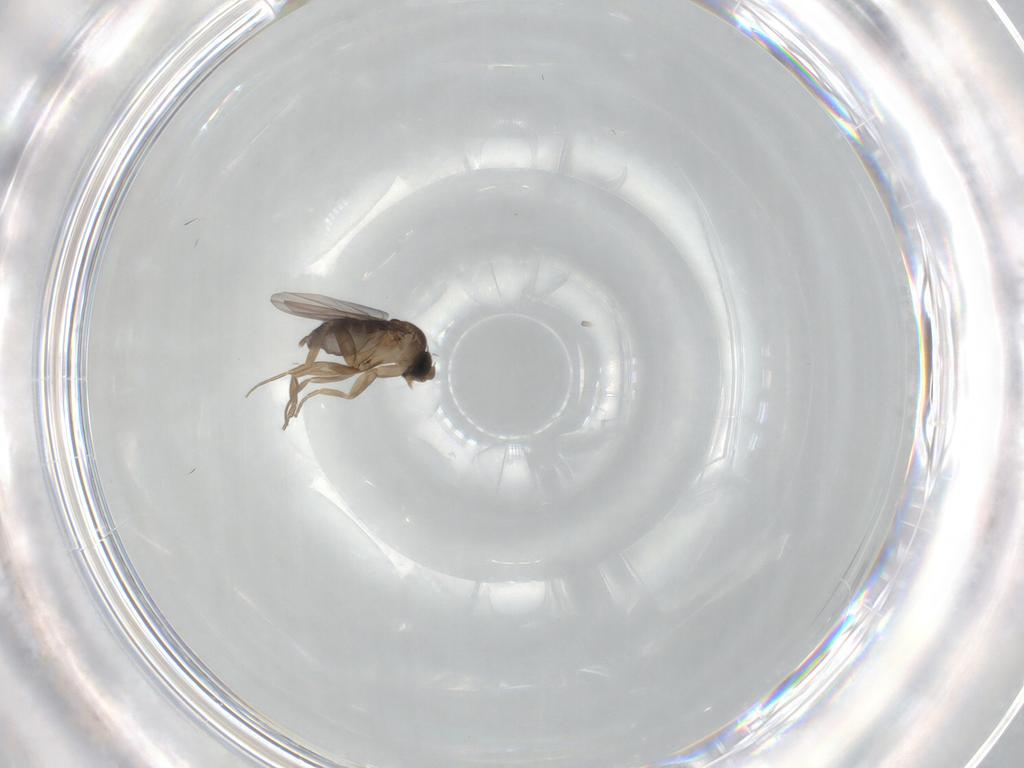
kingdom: Animalia
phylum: Arthropoda
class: Insecta
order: Diptera
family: Phoridae
